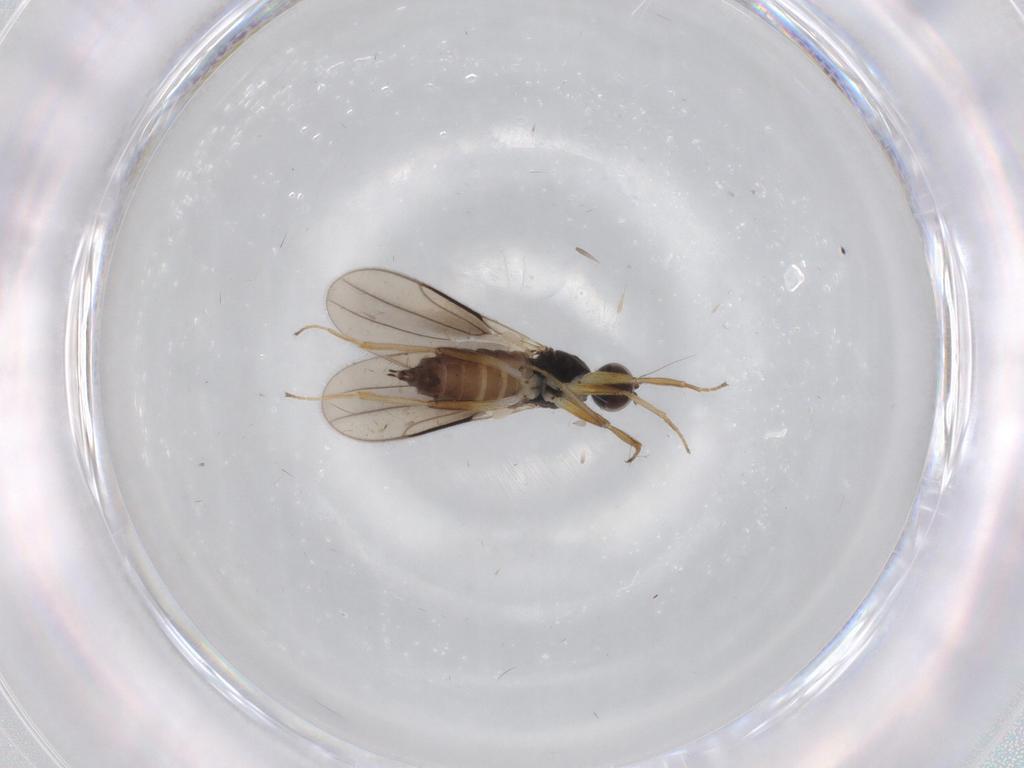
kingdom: Animalia
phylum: Arthropoda
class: Insecta
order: Diptera
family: Hybotidae
